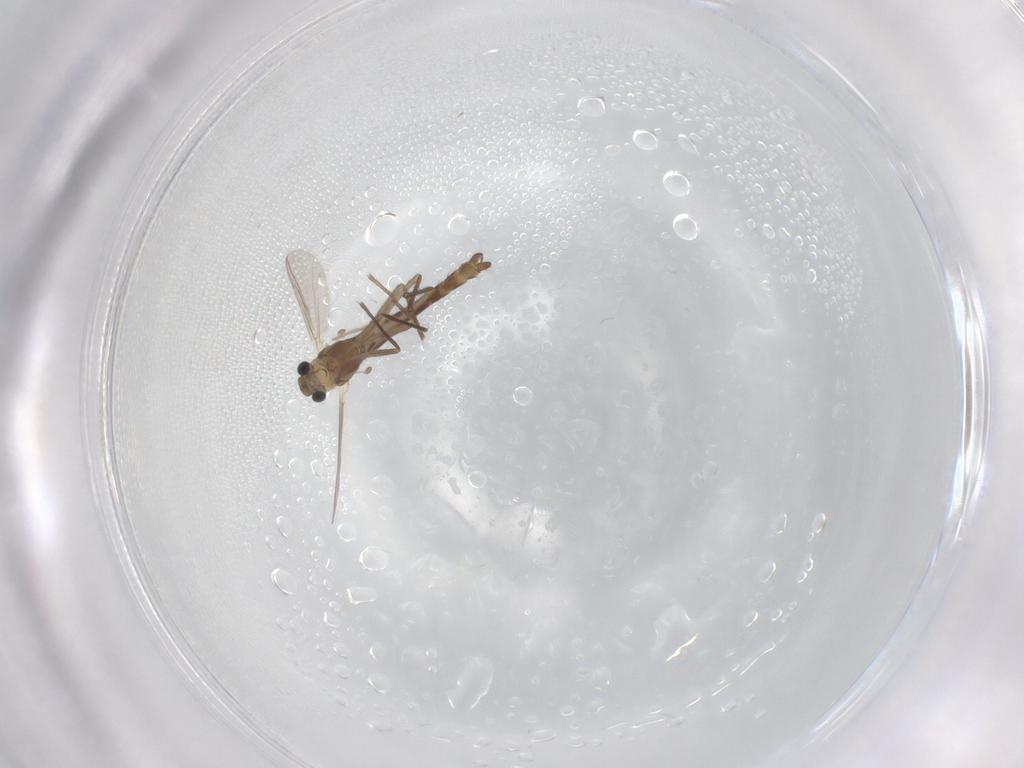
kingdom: Animalia
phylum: Arthropoda
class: Insecta
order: Diptera
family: Chironomidae
